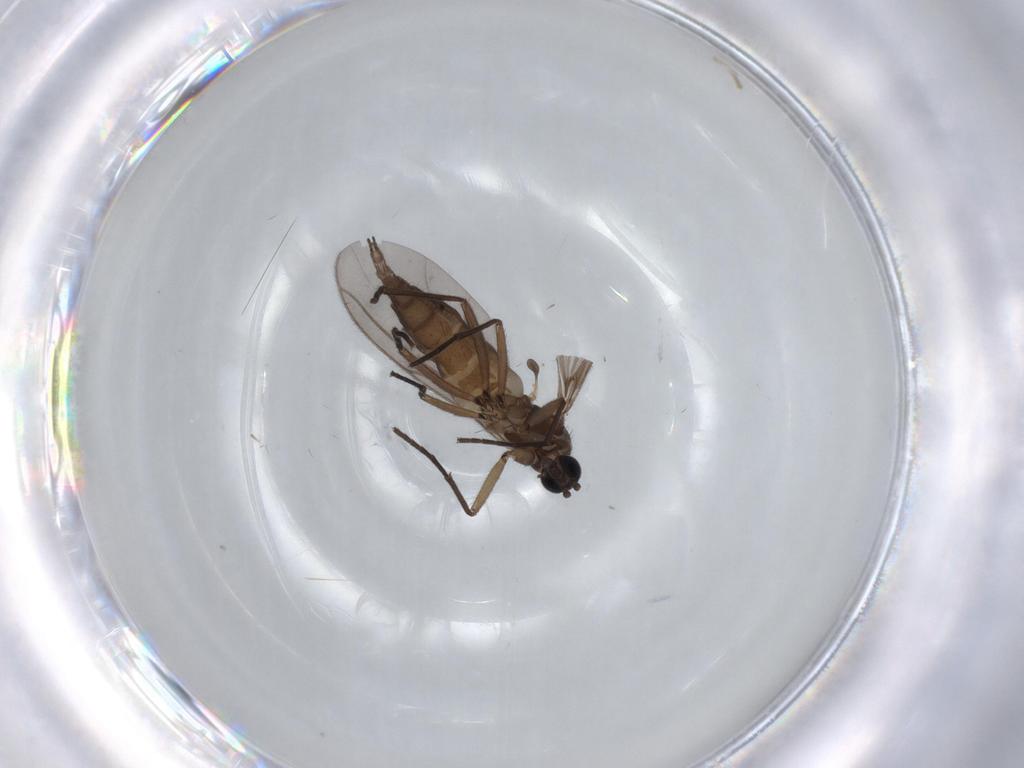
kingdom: Animalia
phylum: Arthropoda
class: Insecta
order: Diptera
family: Sciaridae
